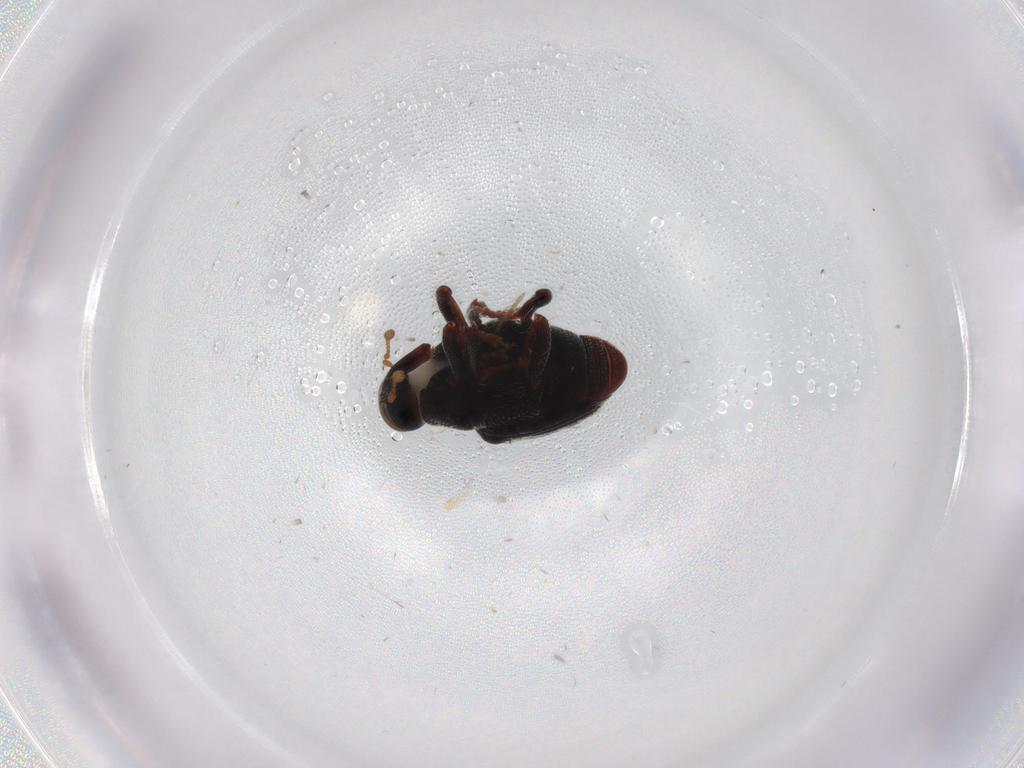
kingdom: Animalia
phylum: Arthropoda
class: Insecta
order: Coleoptera
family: Curculionidae
